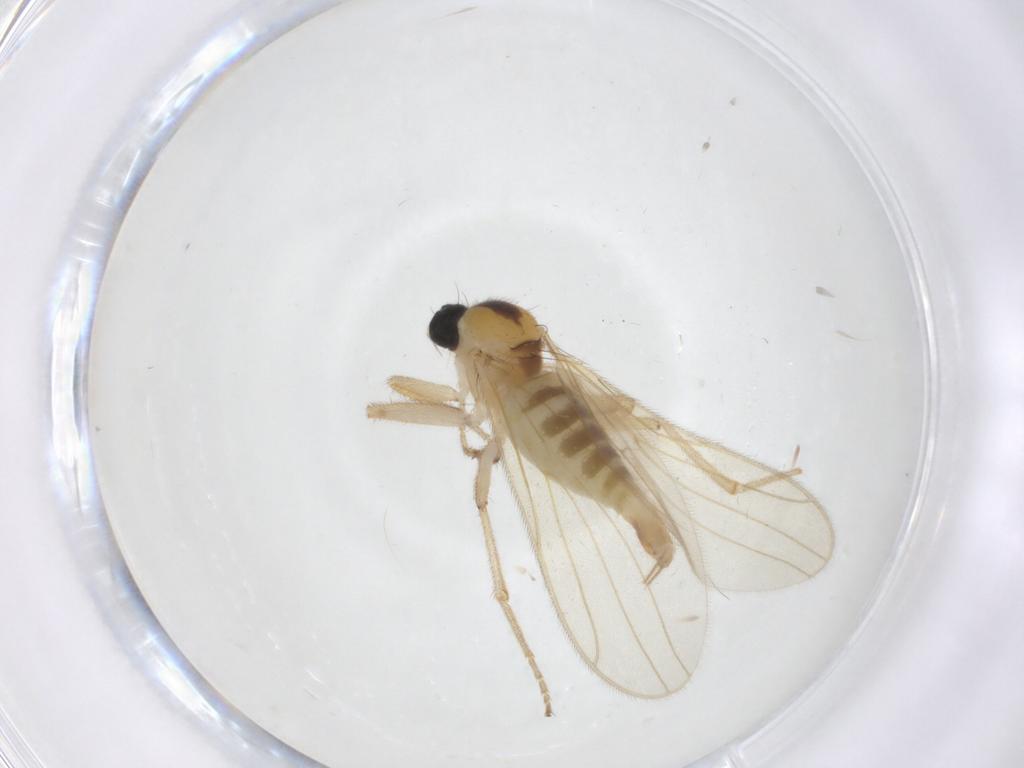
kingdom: Animalia
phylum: Arthropoda
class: Insecta
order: Diptera
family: Hybotidae
